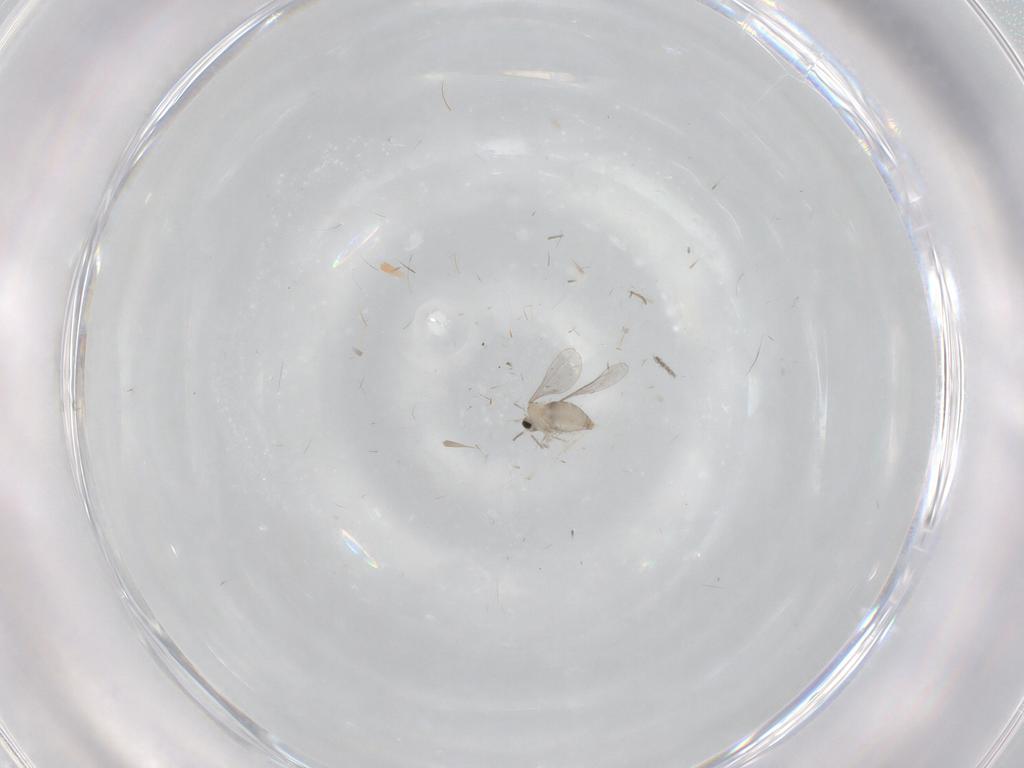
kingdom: Animalia
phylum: Arthropoda
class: Insecta
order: Diptera
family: Chironomidae
